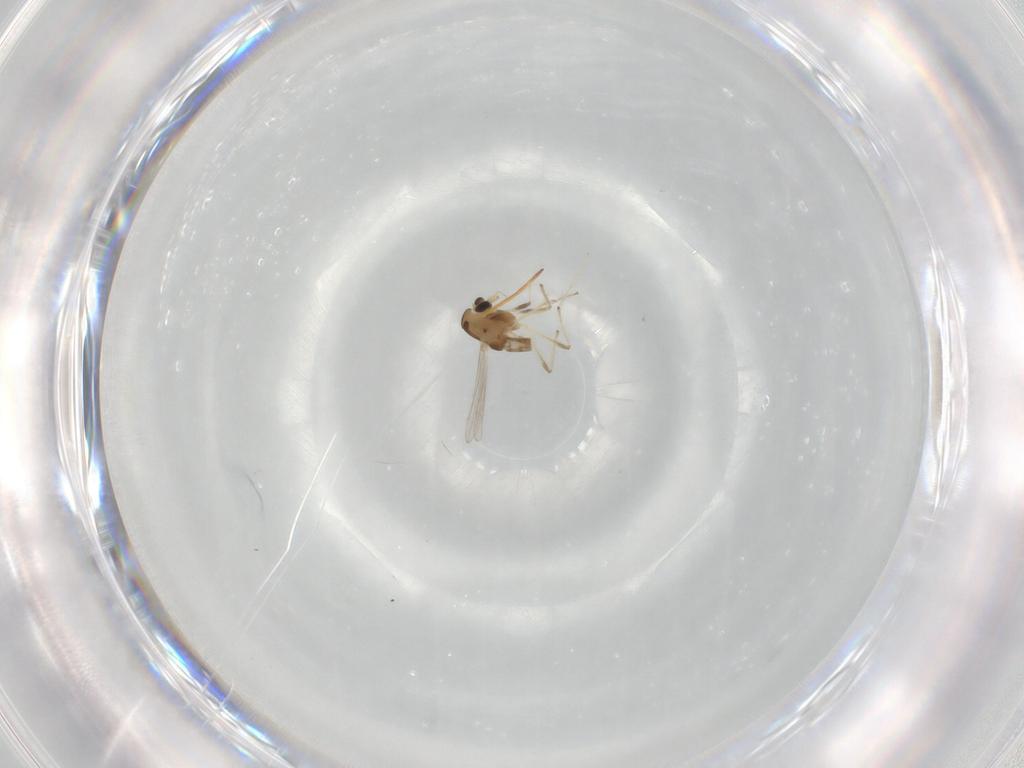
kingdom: Animalia
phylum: Arthropoda
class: Insecta
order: Diptera
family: Chironomidae
